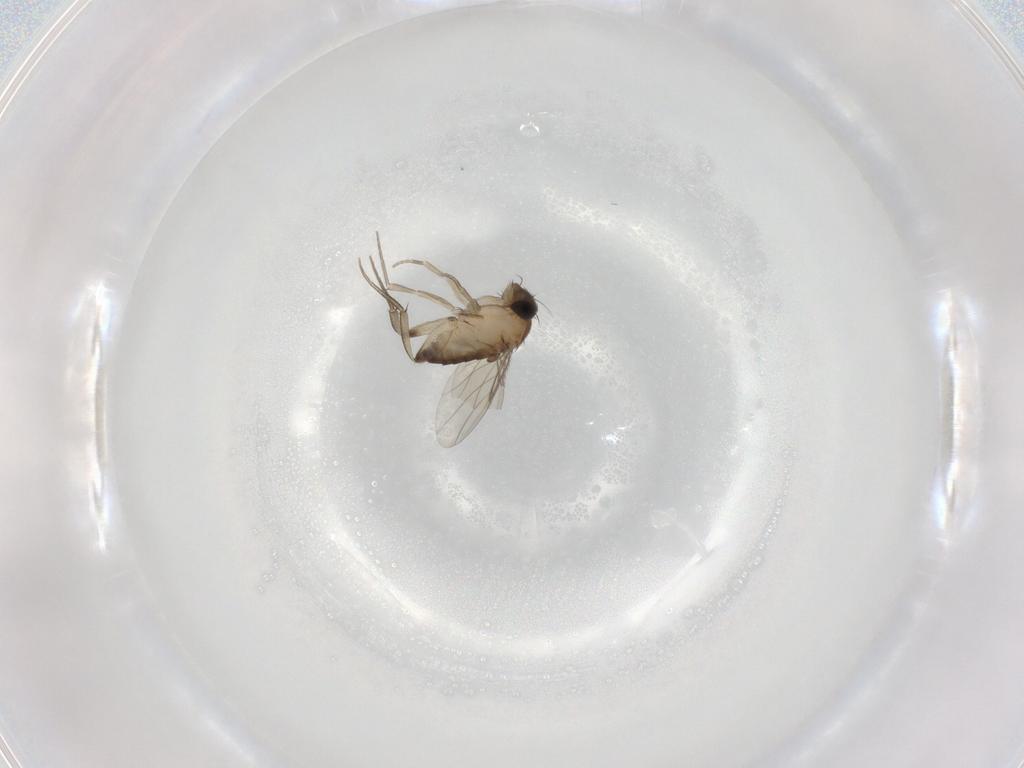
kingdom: Animalia
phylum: Arthropoda
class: Insecta
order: Diptera
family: Phoridae
